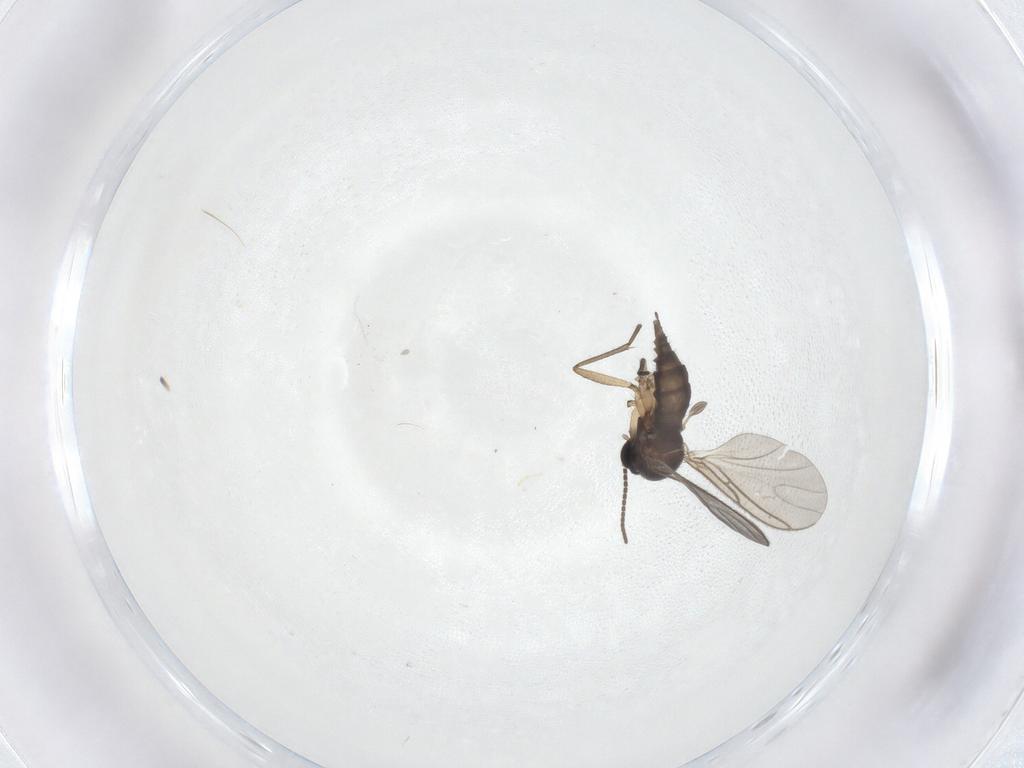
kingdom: Animalia
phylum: Arthropoda
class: Insecta
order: Diptera
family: Sciaridae
